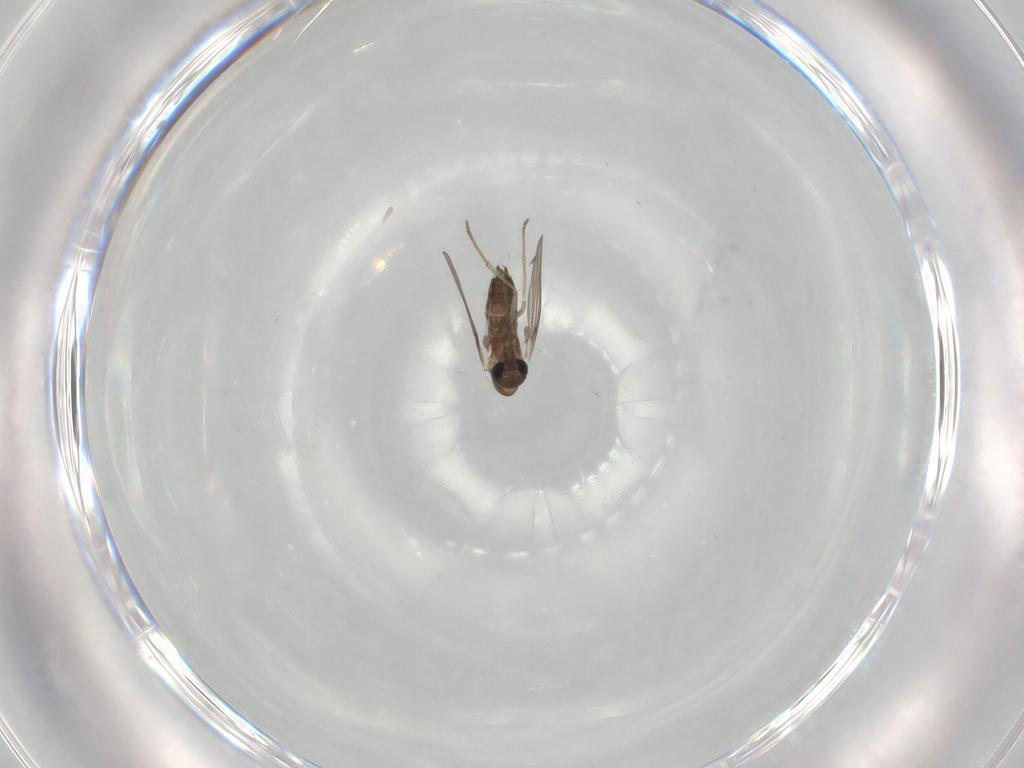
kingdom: Animalia
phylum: Arthropoda
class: Insecta
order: Diptera
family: Psychodidae
